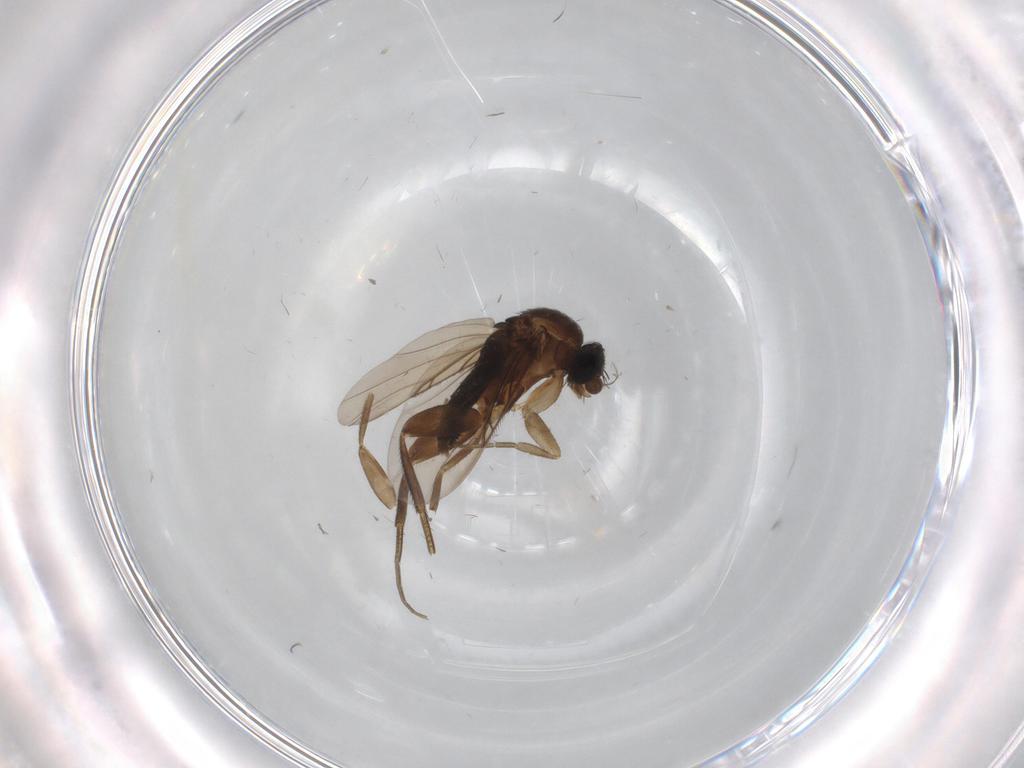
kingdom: Animalia
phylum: Arthropoda
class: Insecta
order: Diptera
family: Phoridae
